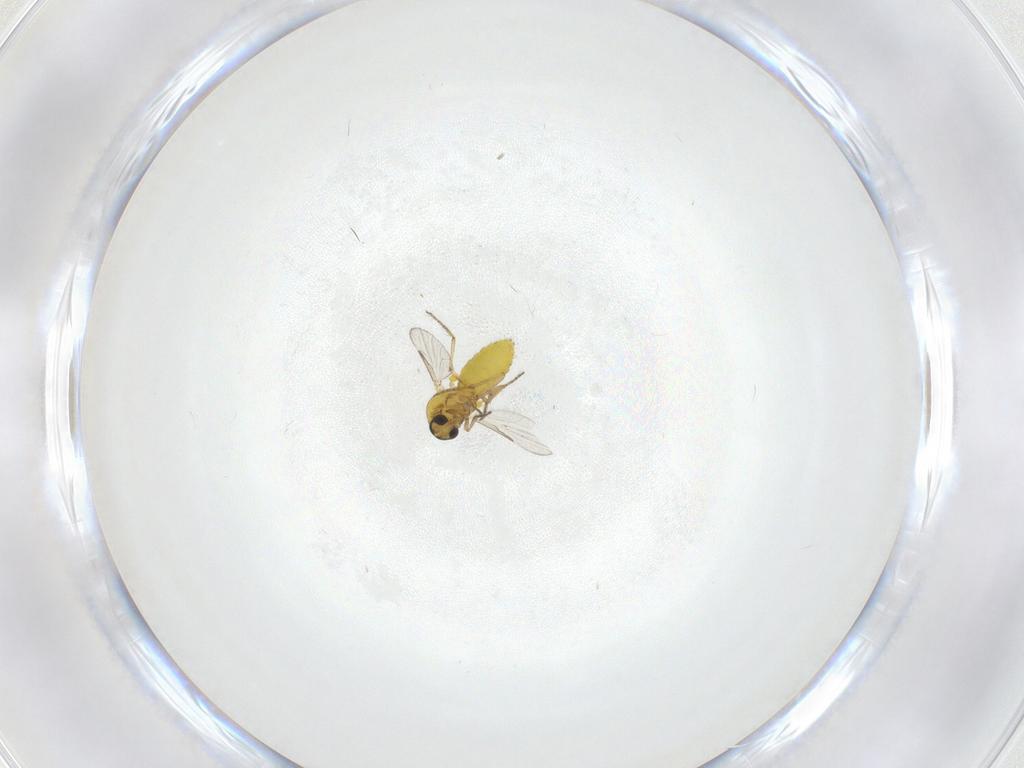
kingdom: Animalia
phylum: Arthropoda
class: Insecta
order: Diptera
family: Ceratopogonidae
